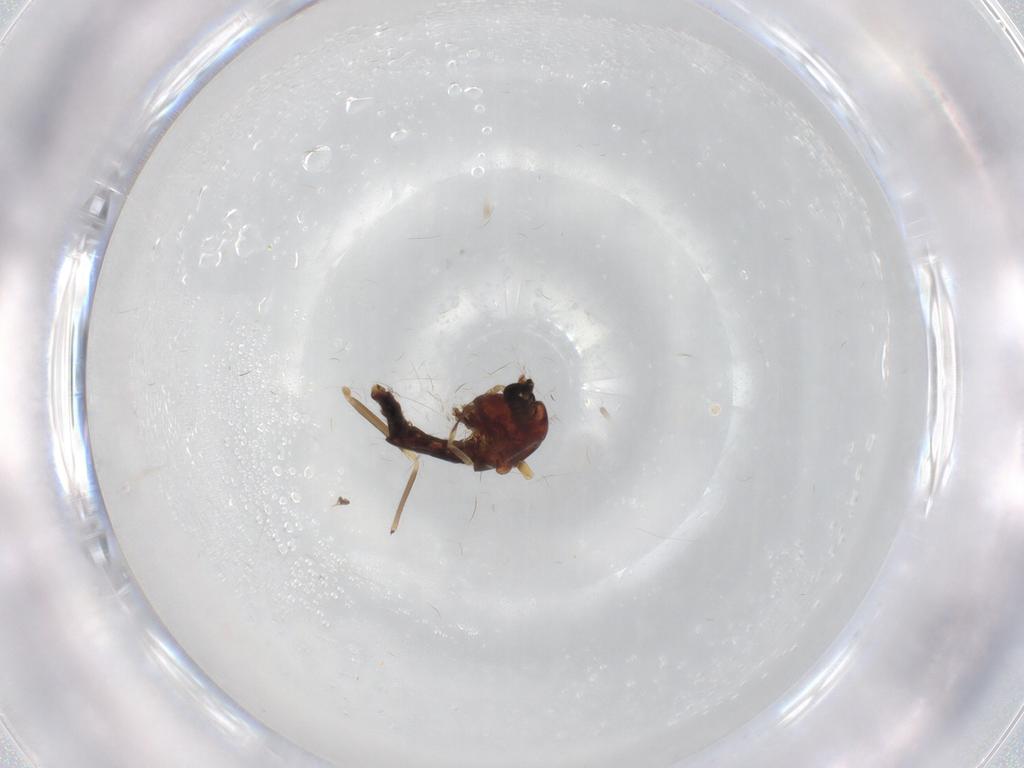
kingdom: Animalia
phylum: Arthropoda
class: Insecta
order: Diptera
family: Chironomidae
